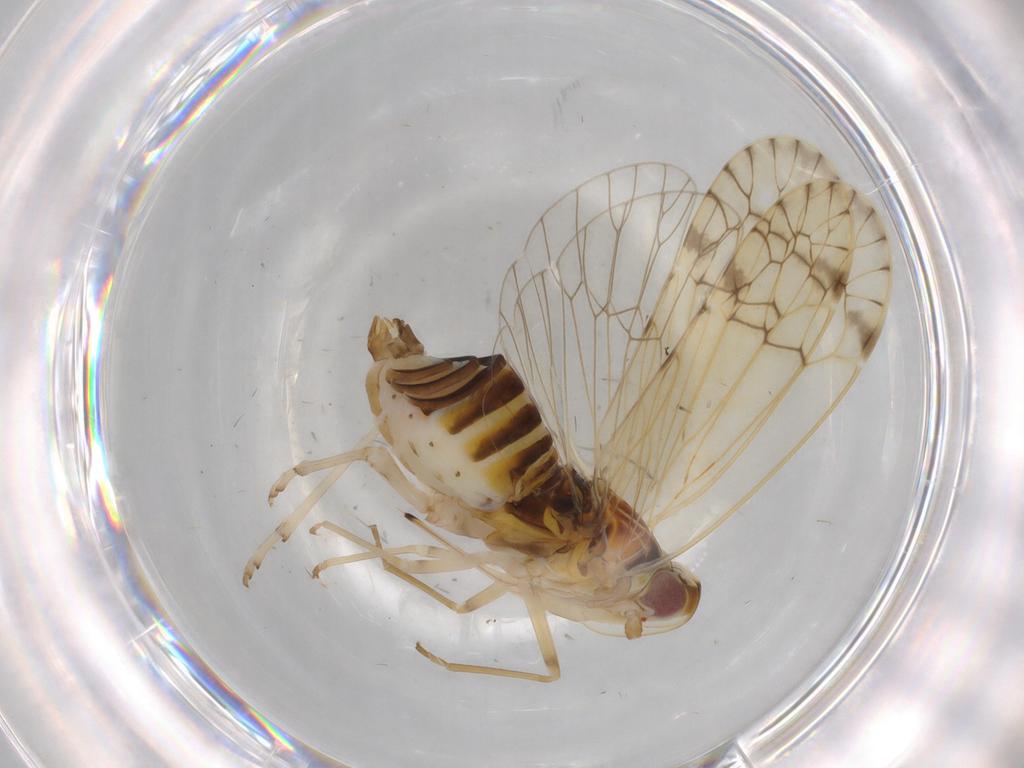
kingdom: Animalia
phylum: Arthropoda
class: Insecta
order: Hemiptera
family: Kinnaridae
